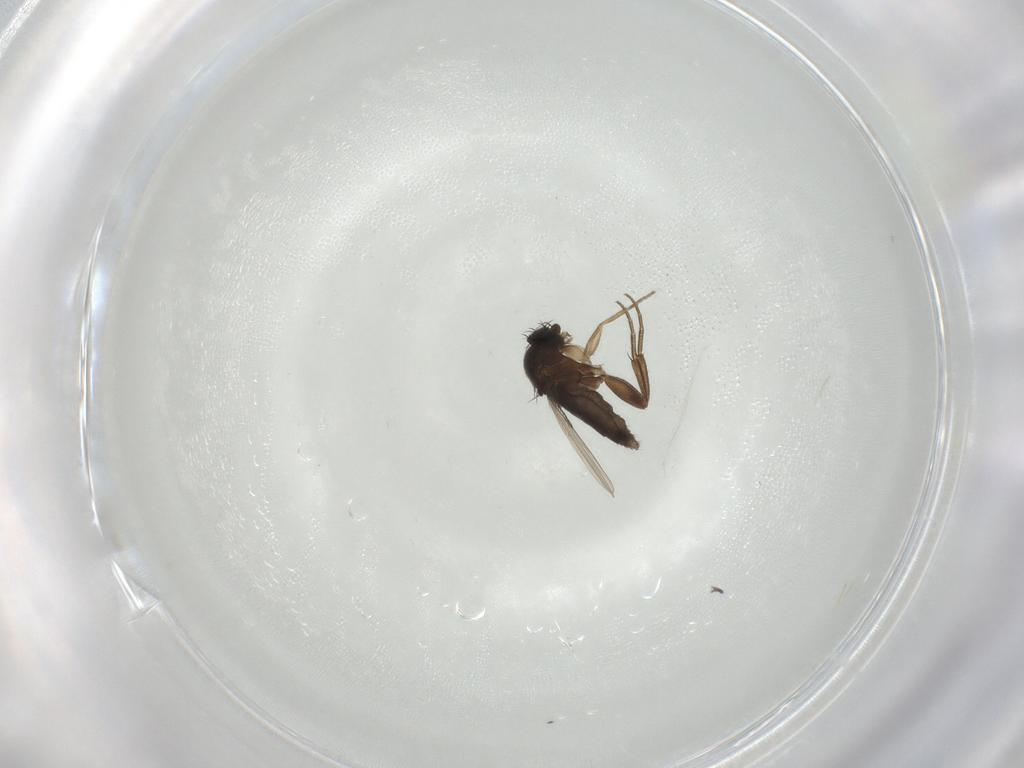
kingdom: Animalia
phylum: Arthropoda
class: Insecta
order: Diptera
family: Phoridae
